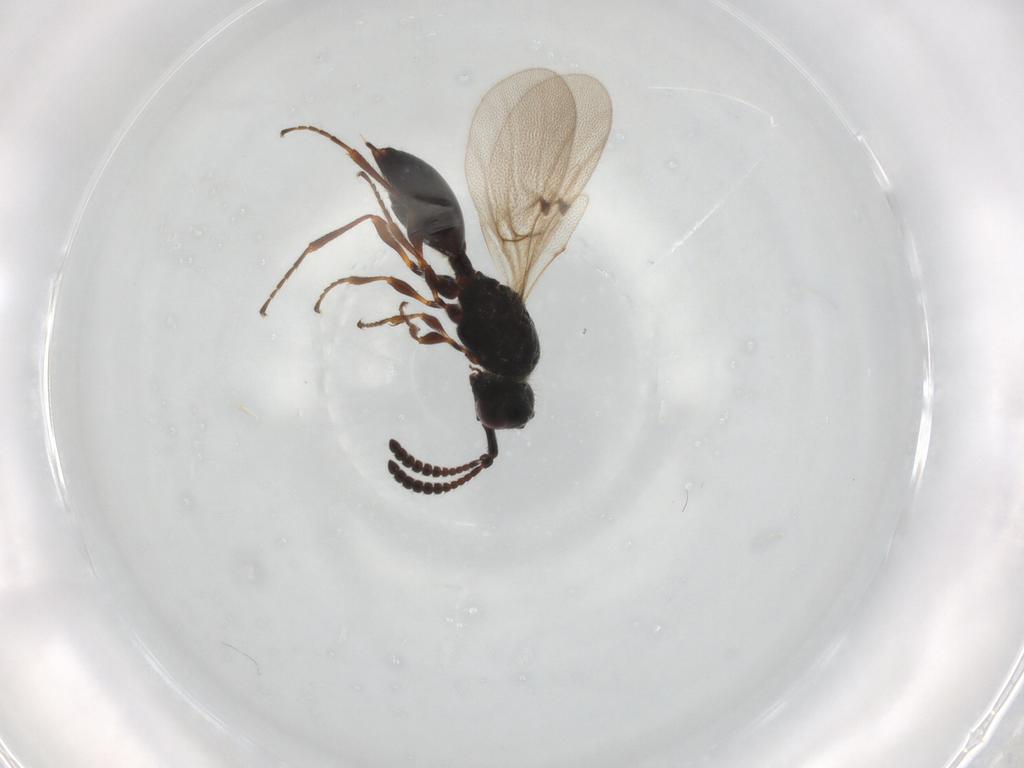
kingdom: Animalia
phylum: Arthropoda
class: Insecta
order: Hymenoptera
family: Diapriidae
